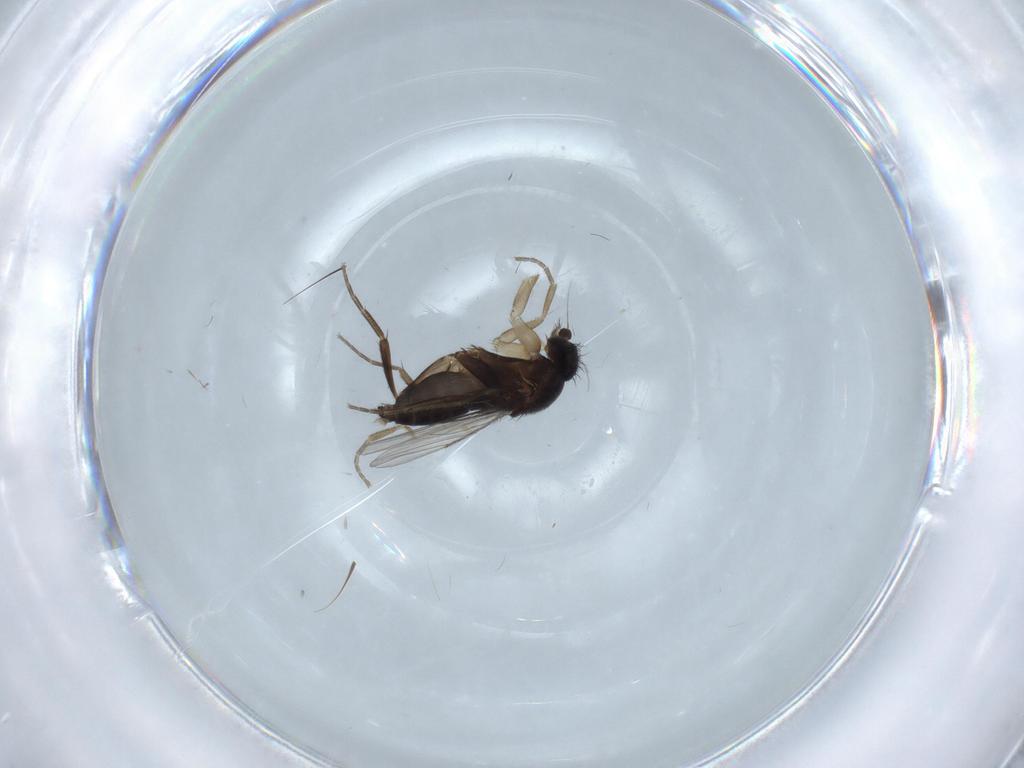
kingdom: Animalia
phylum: Arthropoda
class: Insecta
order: Diptera
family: Phoridae
